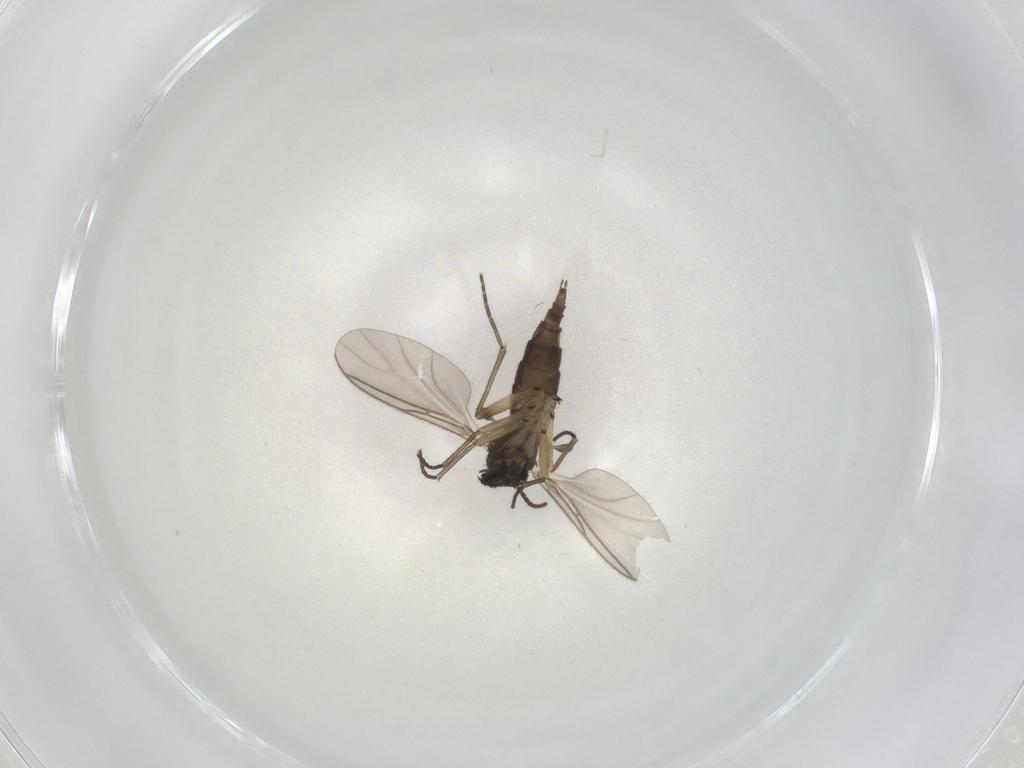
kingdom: Animalia
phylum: Arthropoda
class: Insecta
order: Diptera
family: Sciaridae
